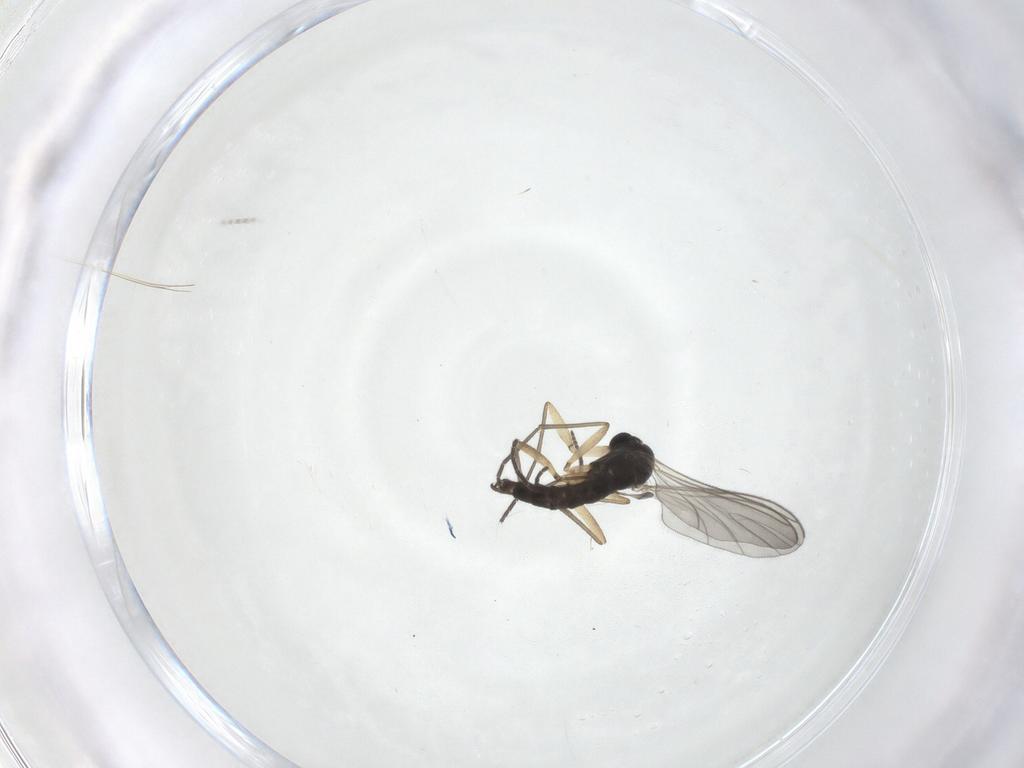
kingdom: Animalia
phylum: Arthropoda
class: Insecta
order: Diptera
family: Sciaridae
